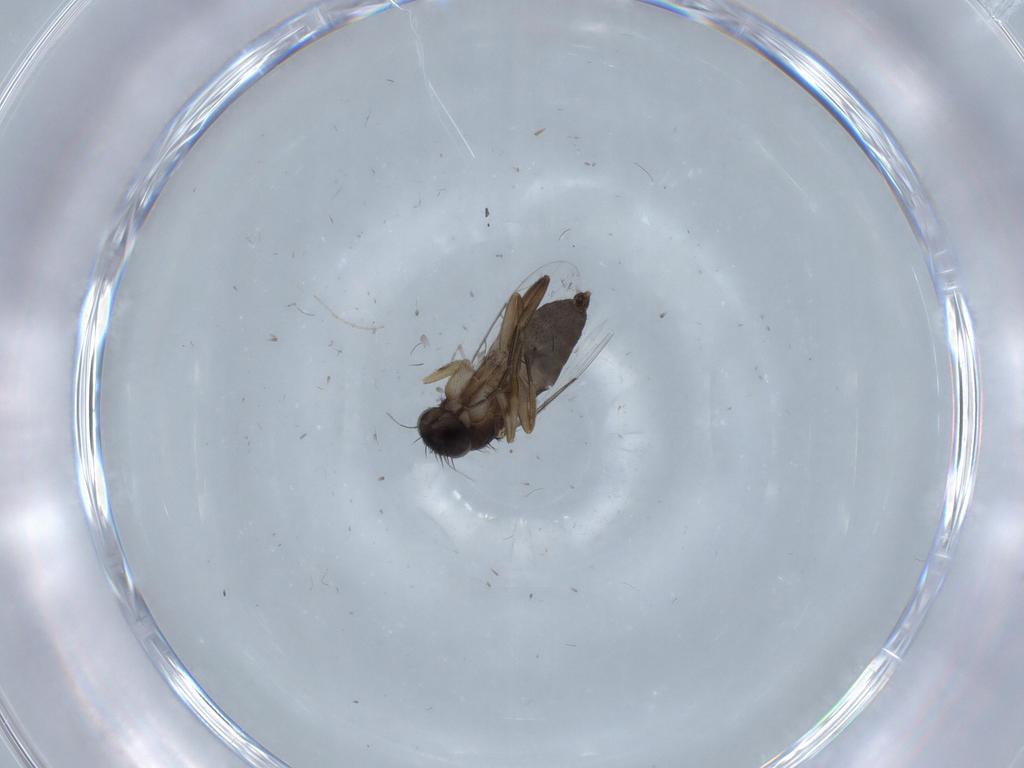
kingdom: Animalia
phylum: Arthropoda
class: Insecta
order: Diptera
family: Phoridae
